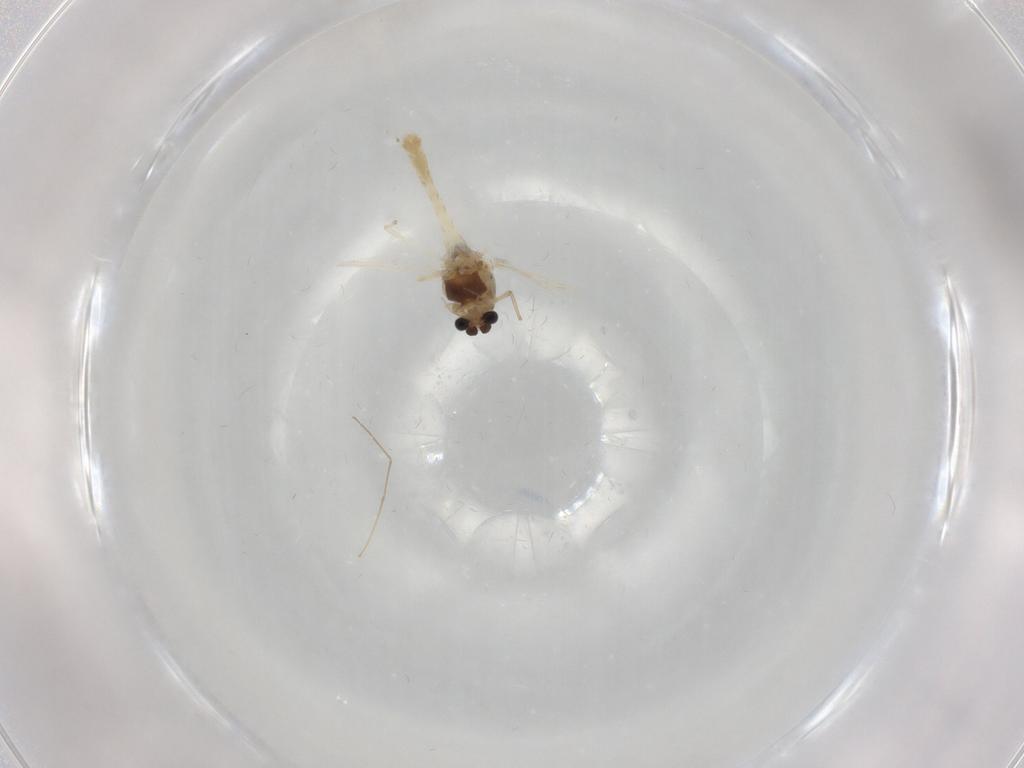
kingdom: Animalia
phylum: Arthropoda
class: Insecta
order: Diptera
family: Chironomidae
